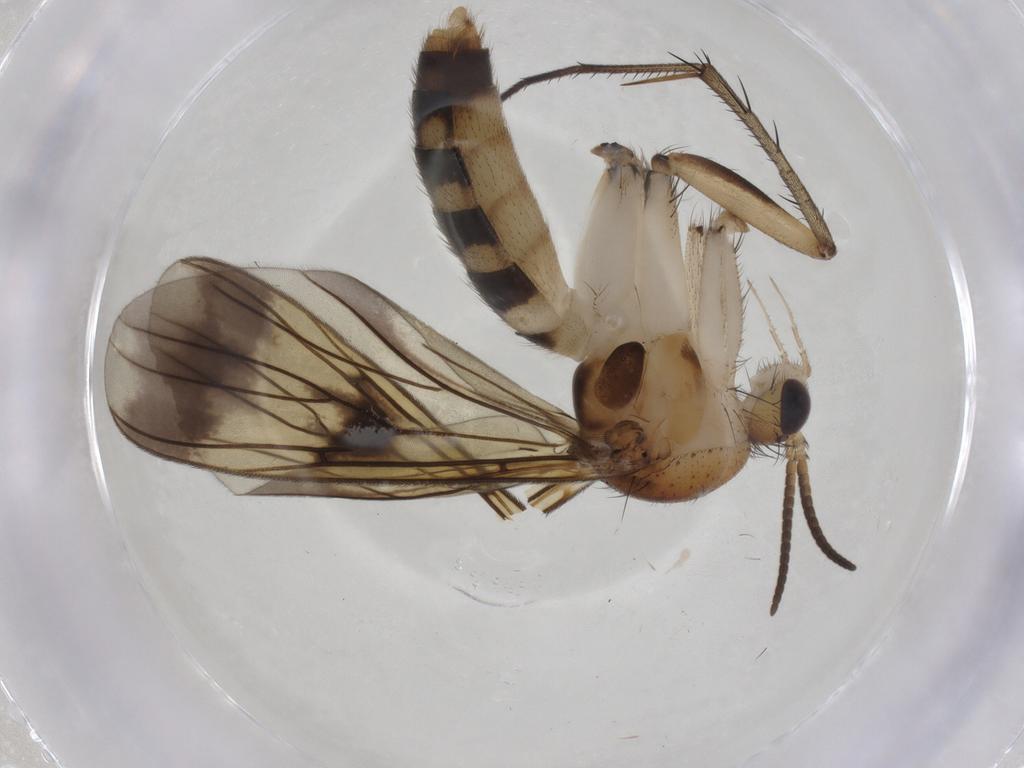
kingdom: Animalia
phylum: Arthropoda
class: Insecta
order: Diptera
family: Mycetophilidae
